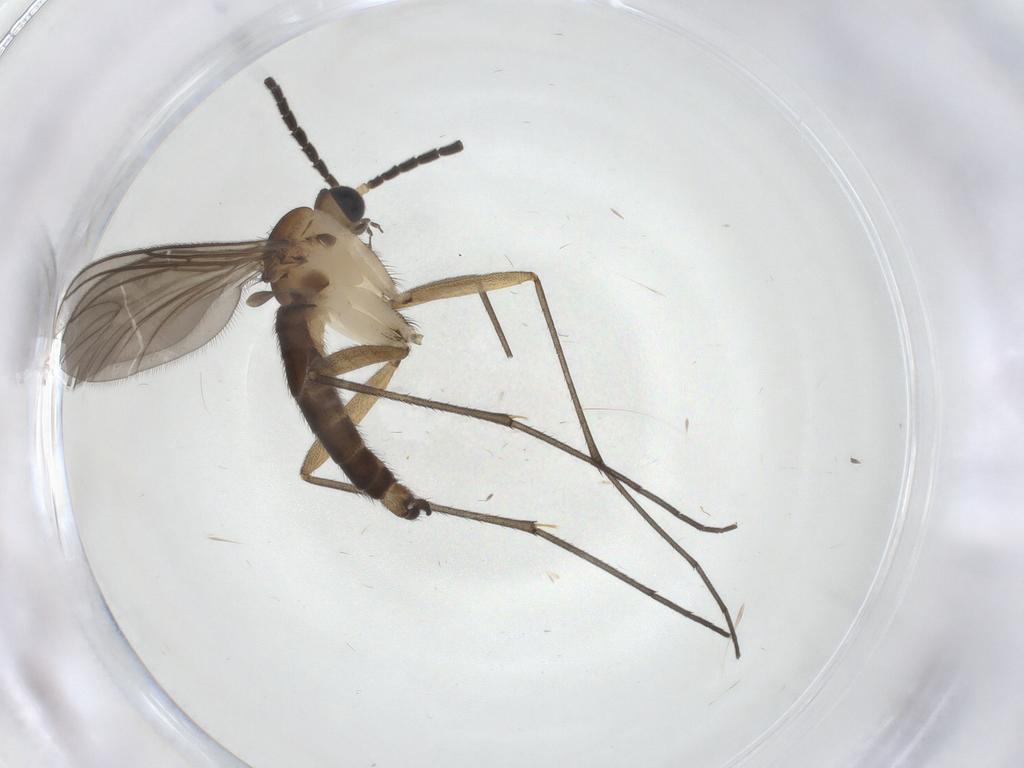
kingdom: Animalia
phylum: Arthropoda
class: Insecta
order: Diptera
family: Sciaridae
